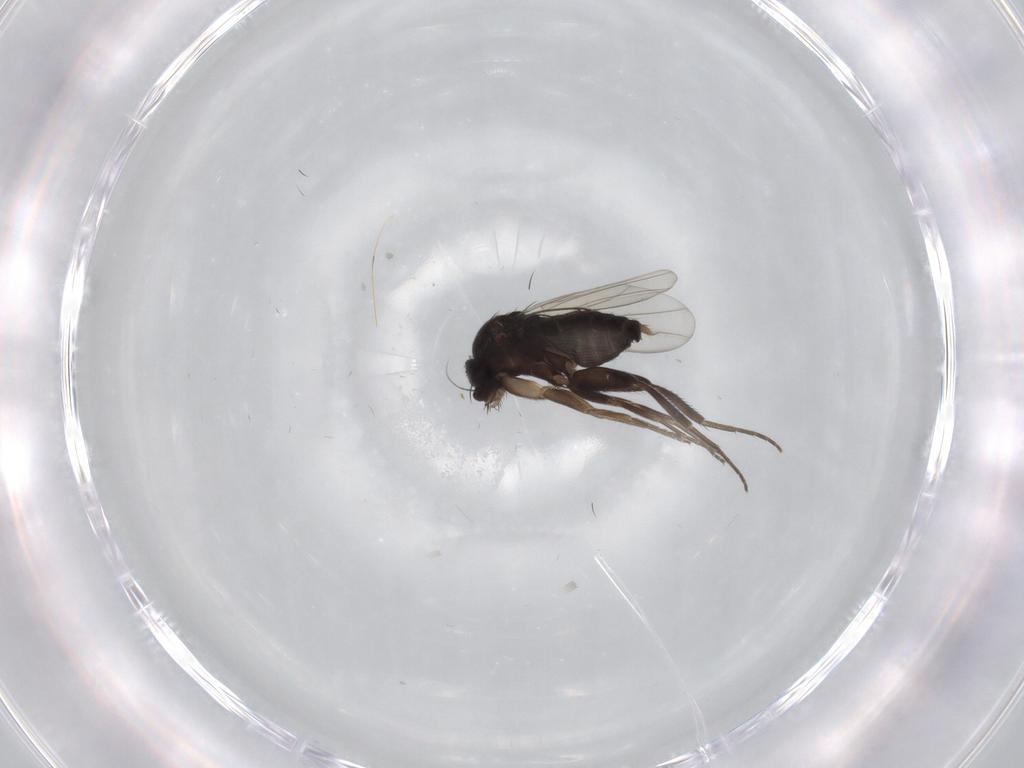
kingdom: Animalia
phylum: Arthropoda
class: Insecta
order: Diptera
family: Phoridae
